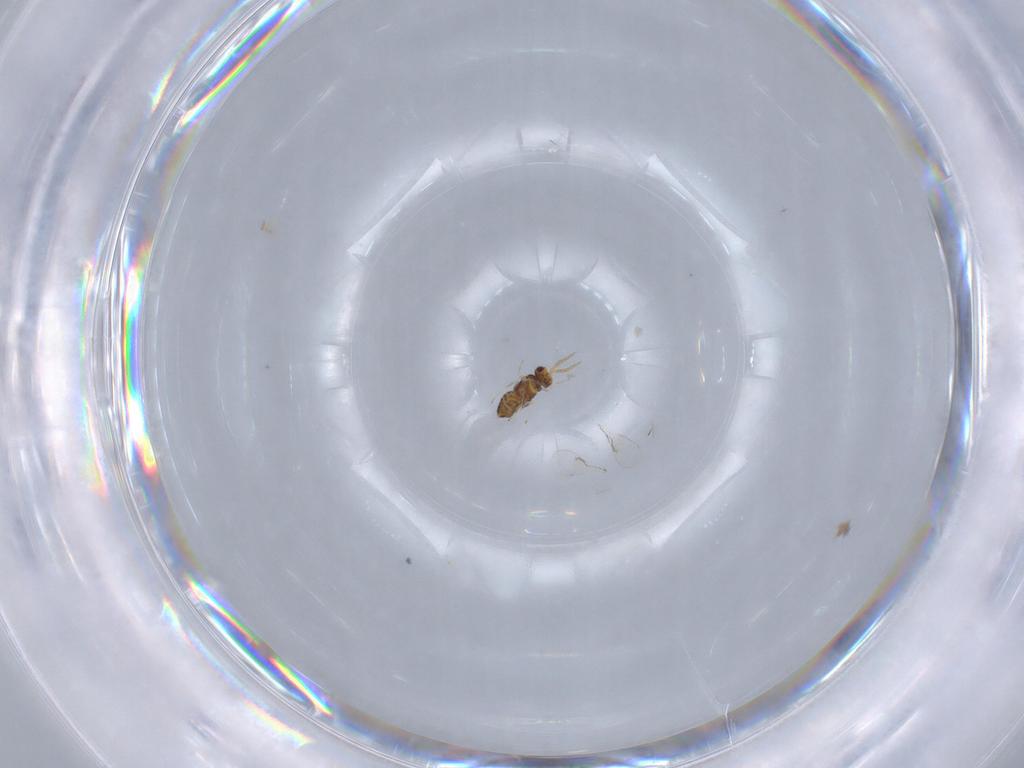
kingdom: Animalia
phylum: Arthropoda
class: Insecta
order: Hymenoptera
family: Aphelinidae
